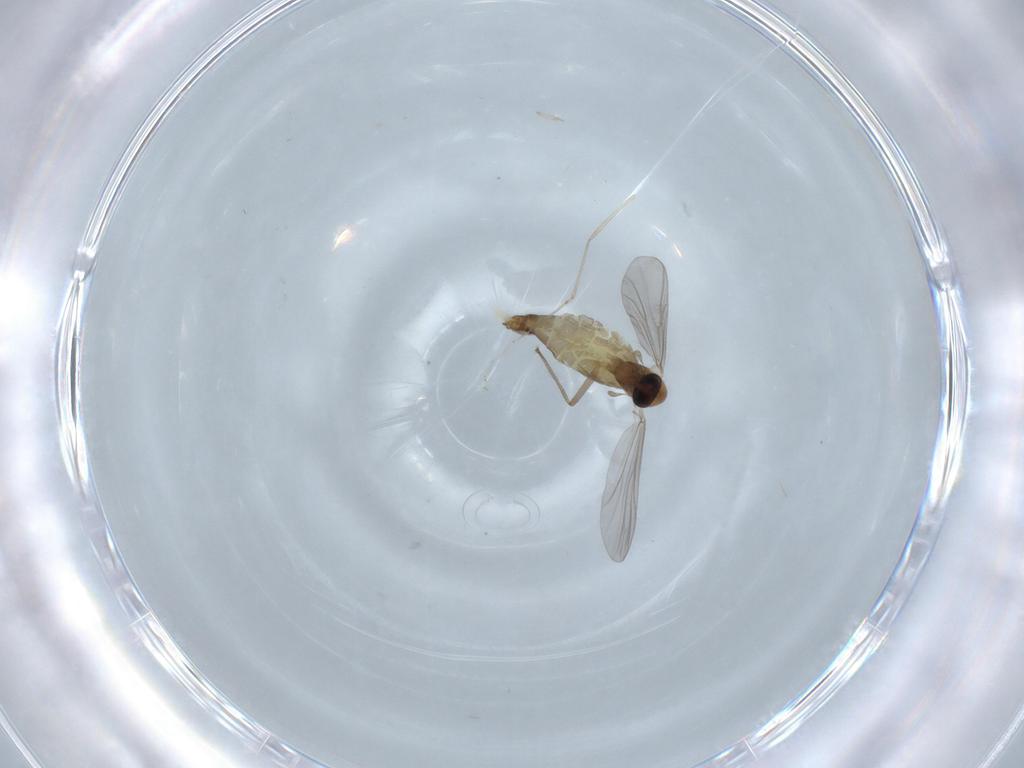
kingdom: Animalia
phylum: Arthropoda
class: Insecta
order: Diptera
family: Chironomidae
